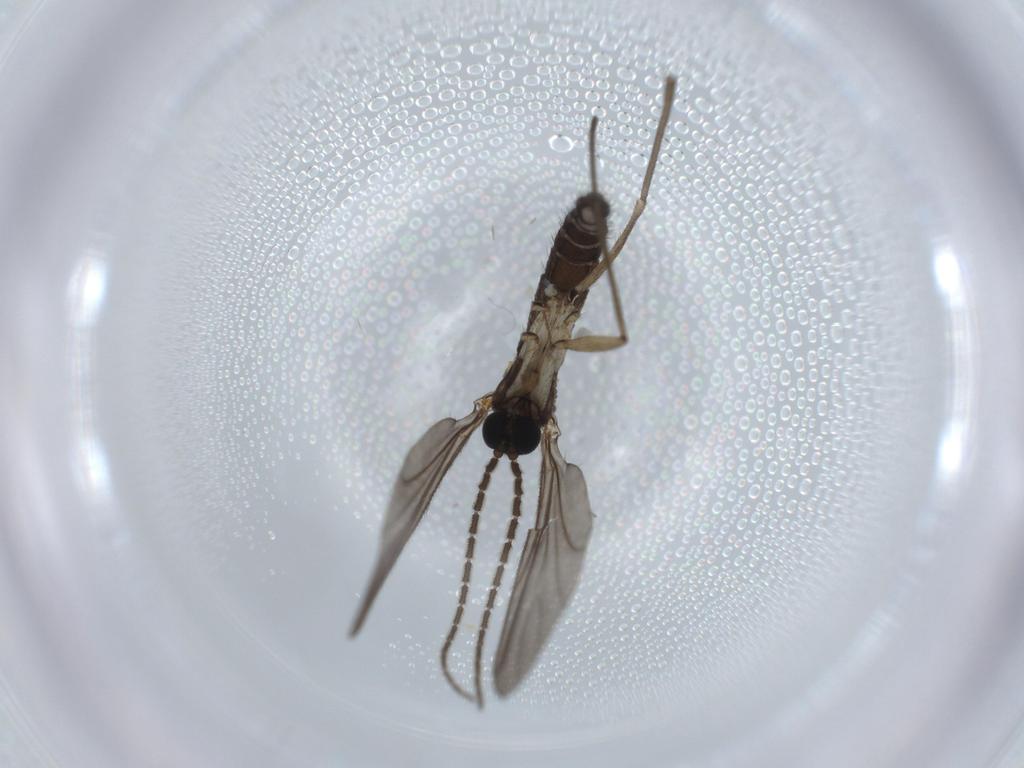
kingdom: Animalia
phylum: Arthropoda
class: Insecta
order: Diptera
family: Sciaridae
